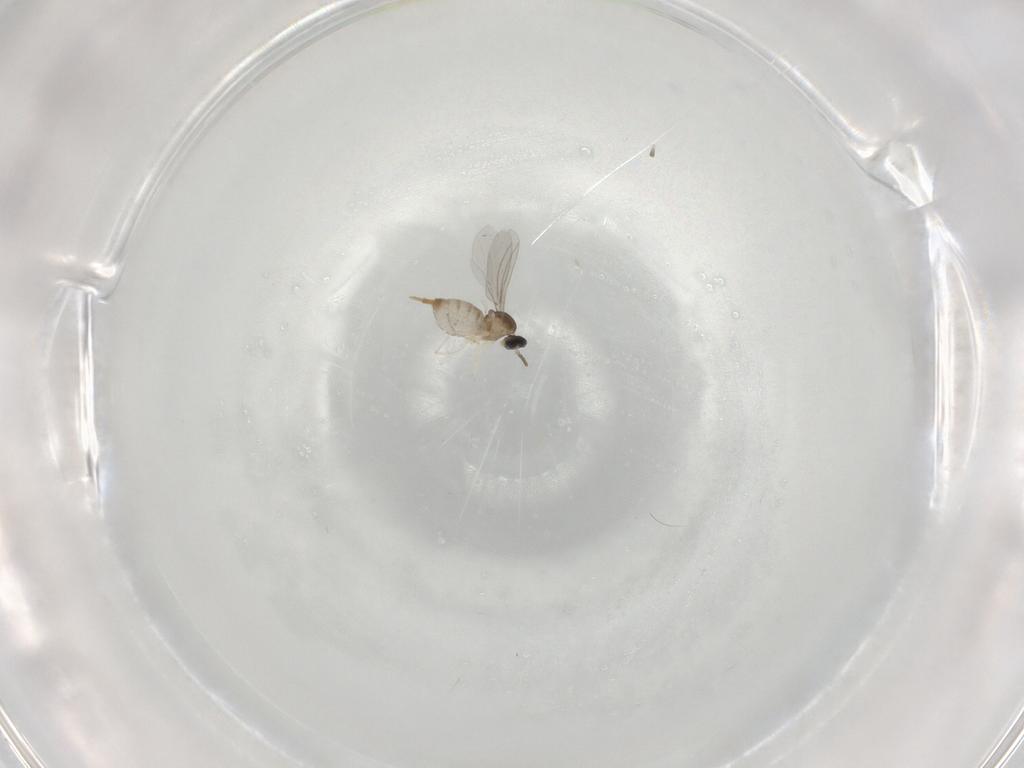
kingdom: Animalia
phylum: Arthropoda
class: Insecta
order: Diptera
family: Cecidomyiidae
